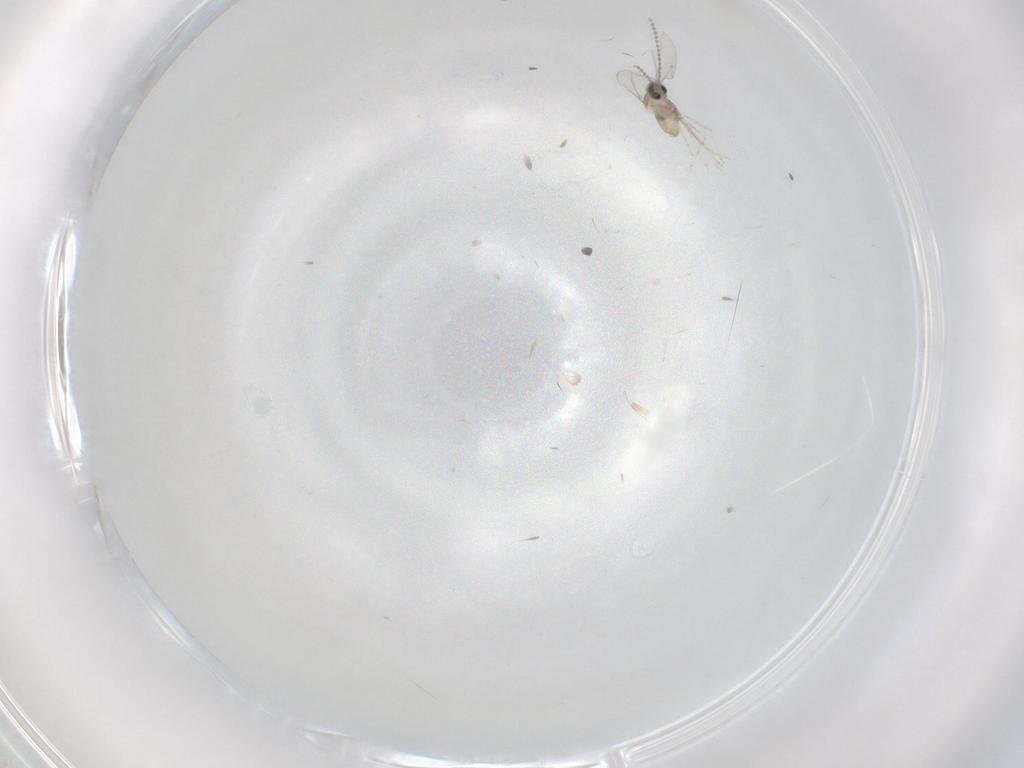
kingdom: Animalia
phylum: Arthropoda
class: Insecta
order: Diptera
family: Cecidomyiidae
